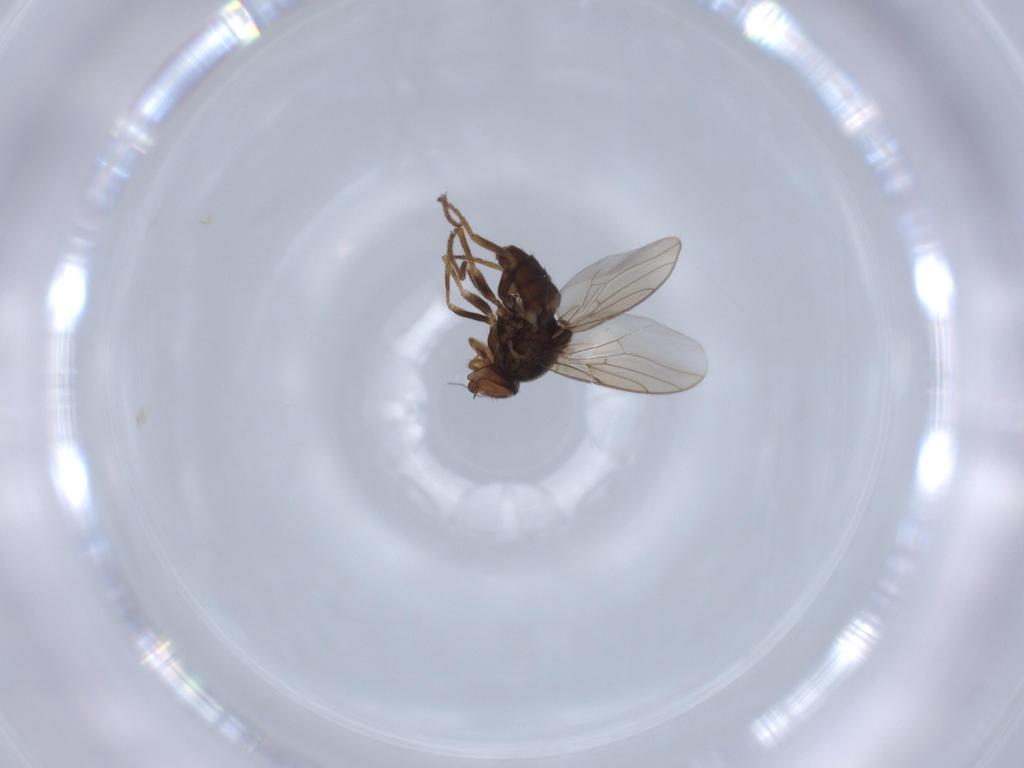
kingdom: Animalia
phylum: Arthropoda
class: Insecta
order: Diptera
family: Chloropidae
